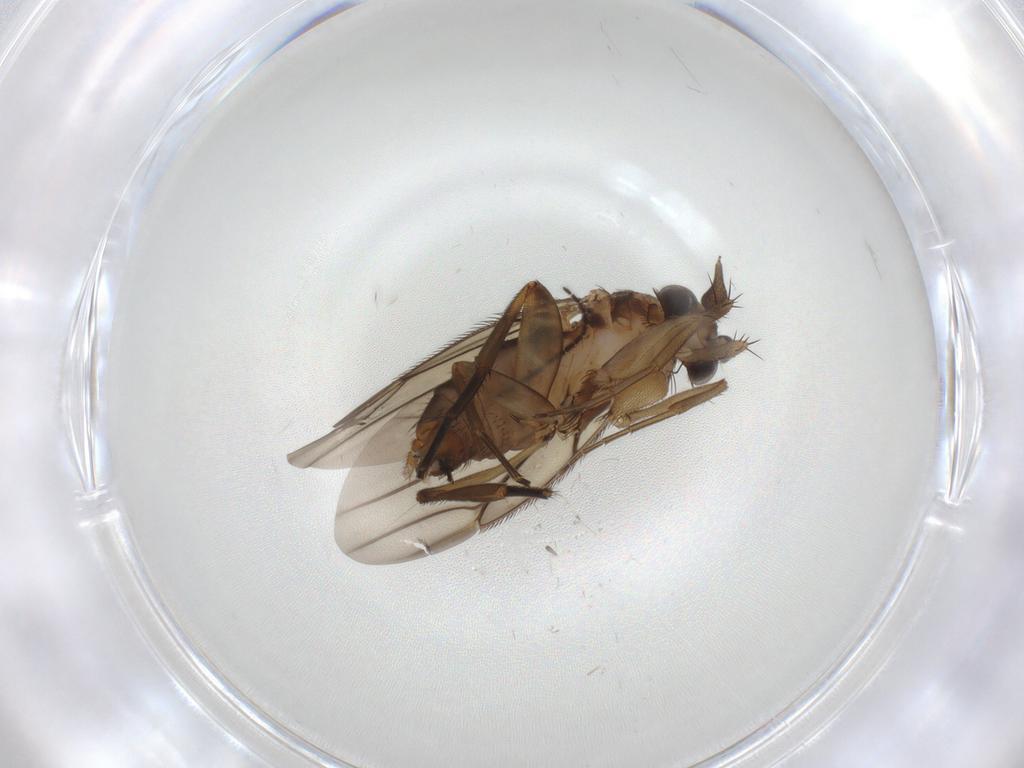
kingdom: Animalia
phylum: Arthropoda
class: Insecta
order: Diptera
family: Phoridae
